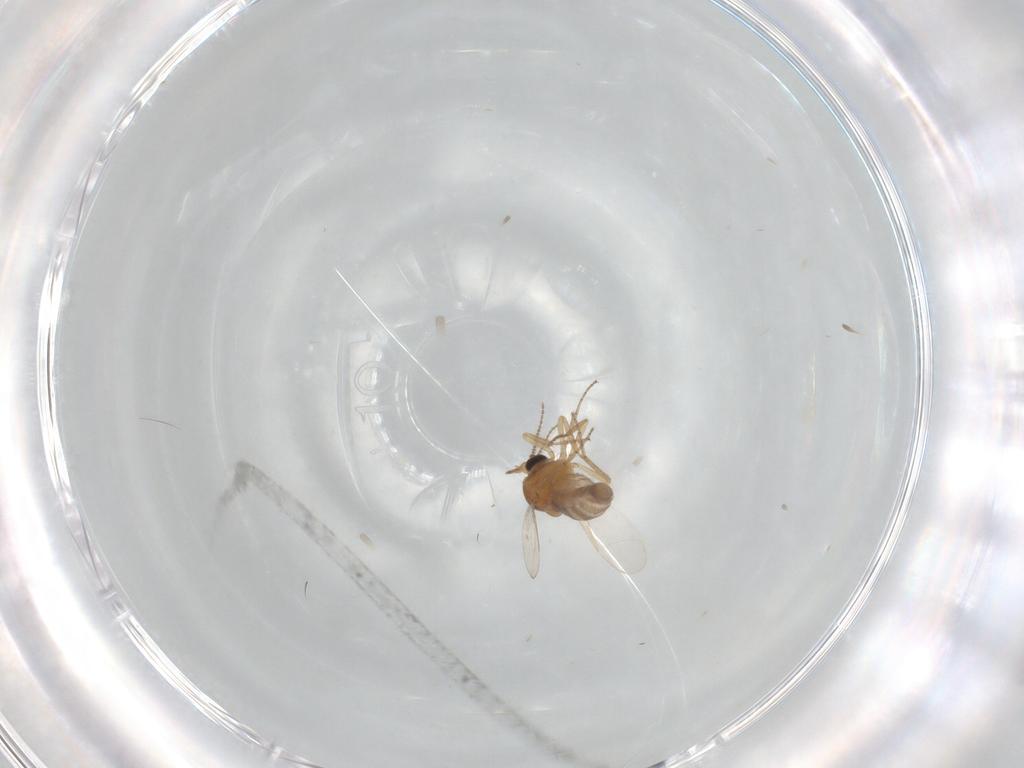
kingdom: Animalia
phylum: Arthropoda
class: Insecta
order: Diptera
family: Ceratopogonidae
